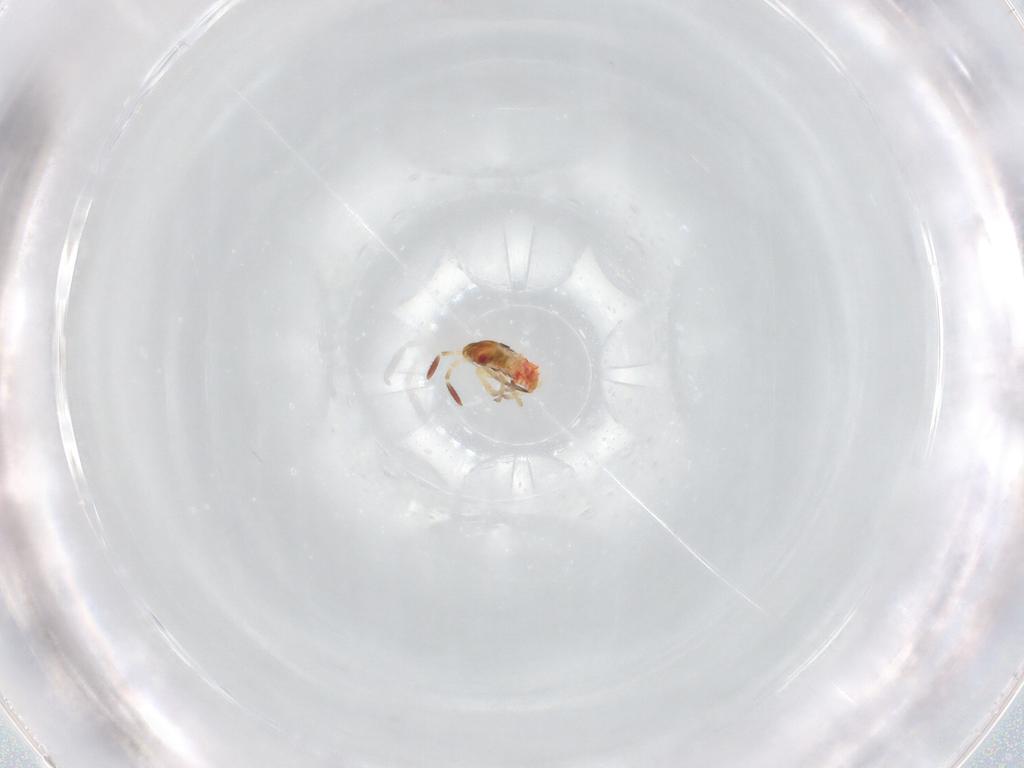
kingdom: Animalia
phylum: Arthropoda
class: Insecta
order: Hemiptera
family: Lygaeidae
